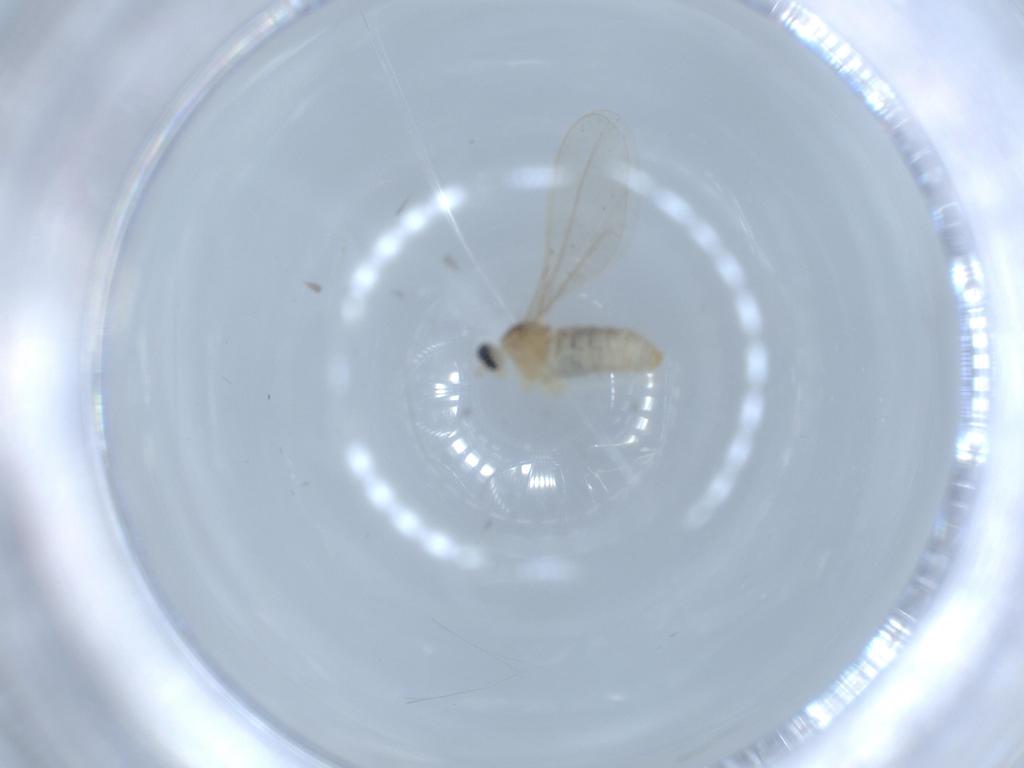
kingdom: Animalia
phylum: Arthropoda
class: Insecta
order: Diptera
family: Cecidomyiidae
